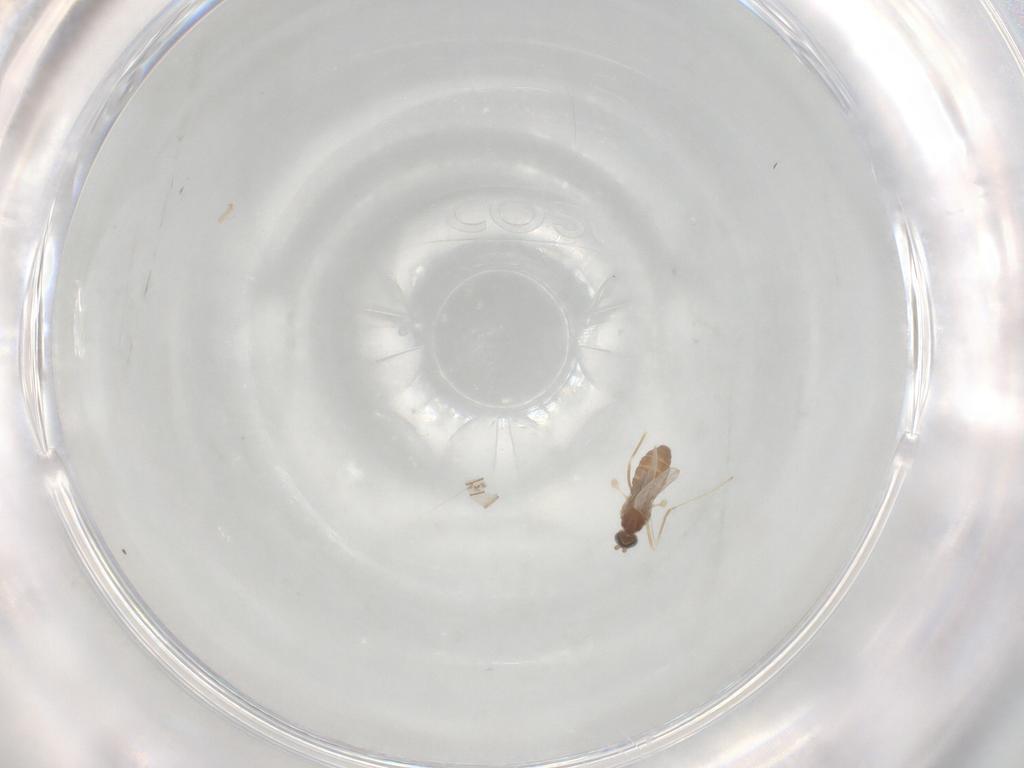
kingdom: Animalia
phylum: Arthropoda
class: Insecta
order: Diptera
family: Cecidomyiidae
